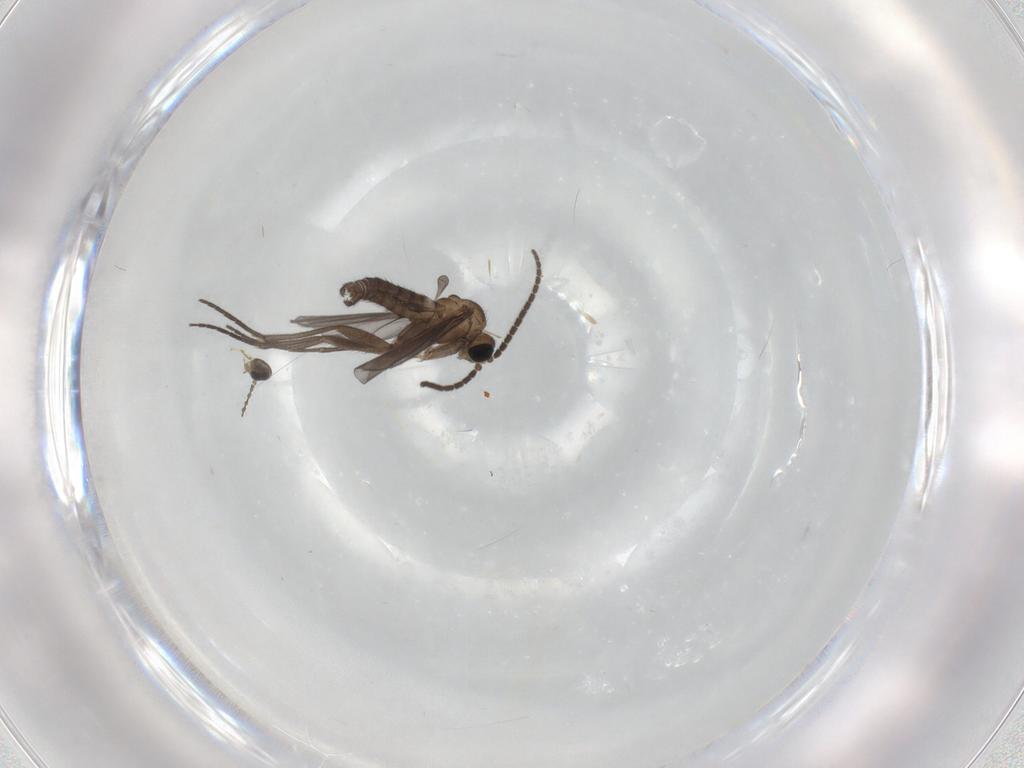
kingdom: Animalia
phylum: Arthropoda
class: Insecta
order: Diptera
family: Sciaridae
